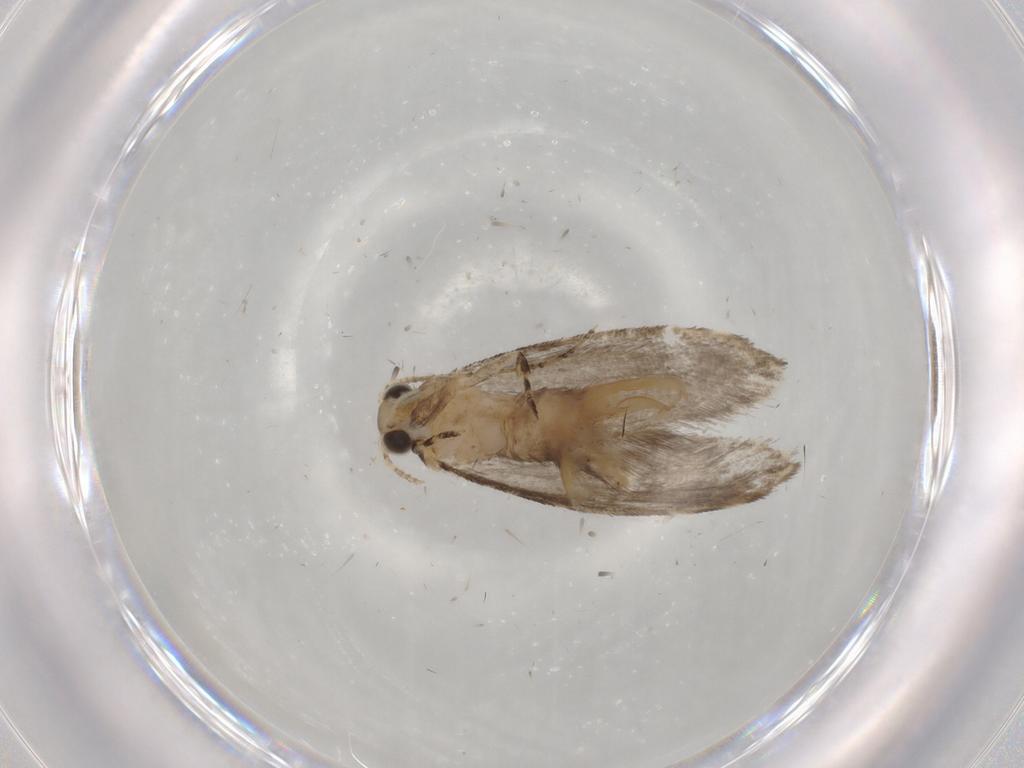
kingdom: Animalia
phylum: Arthropoda
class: Insecta
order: Lepidoptera
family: Tineidae
